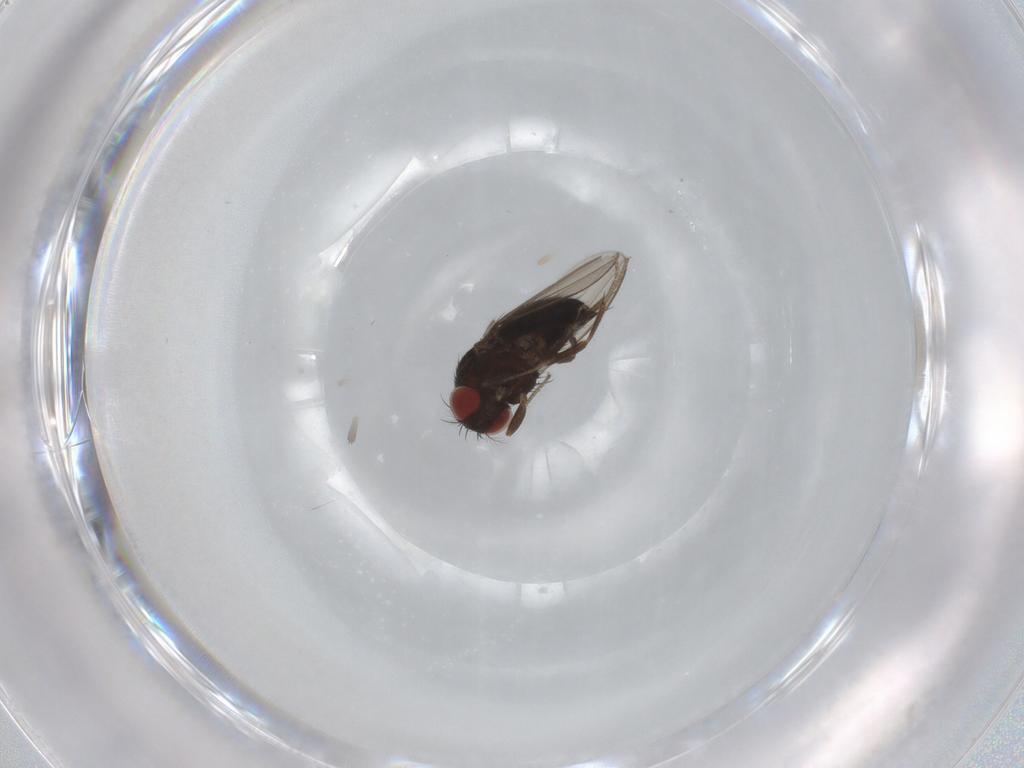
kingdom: Animalia
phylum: Arthropoda
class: Insecta
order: Diptera
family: Drosophilidae
